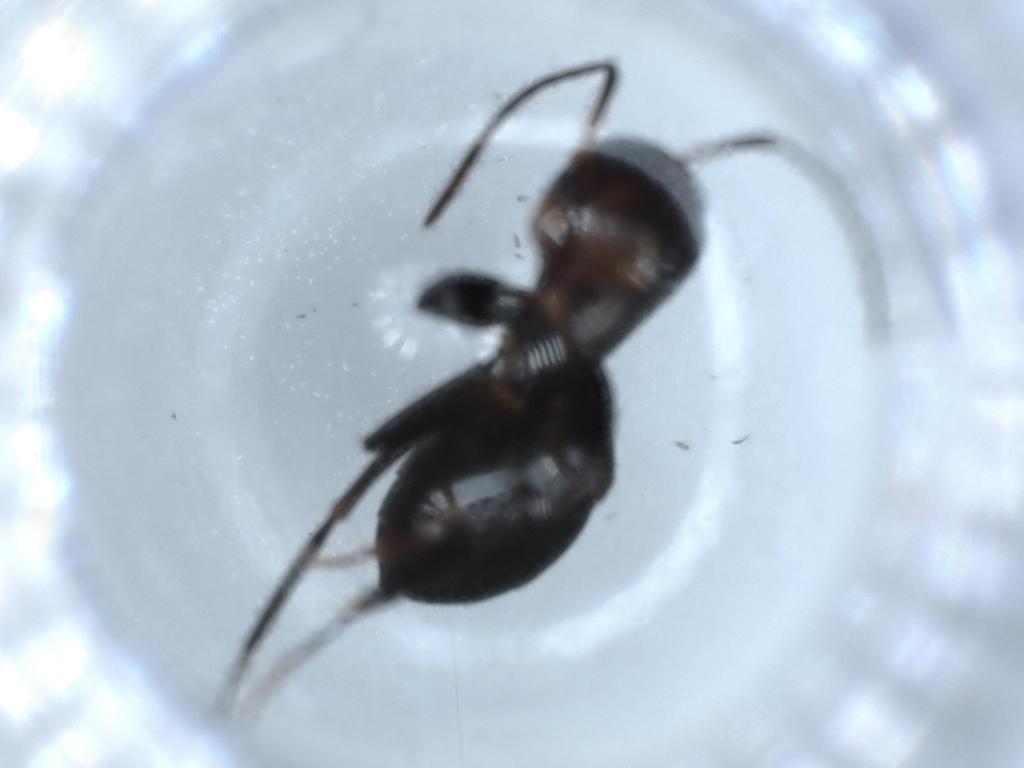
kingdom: Animalia
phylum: Arthropoda
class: Insecta
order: Hymenoptera
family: Formicidae
